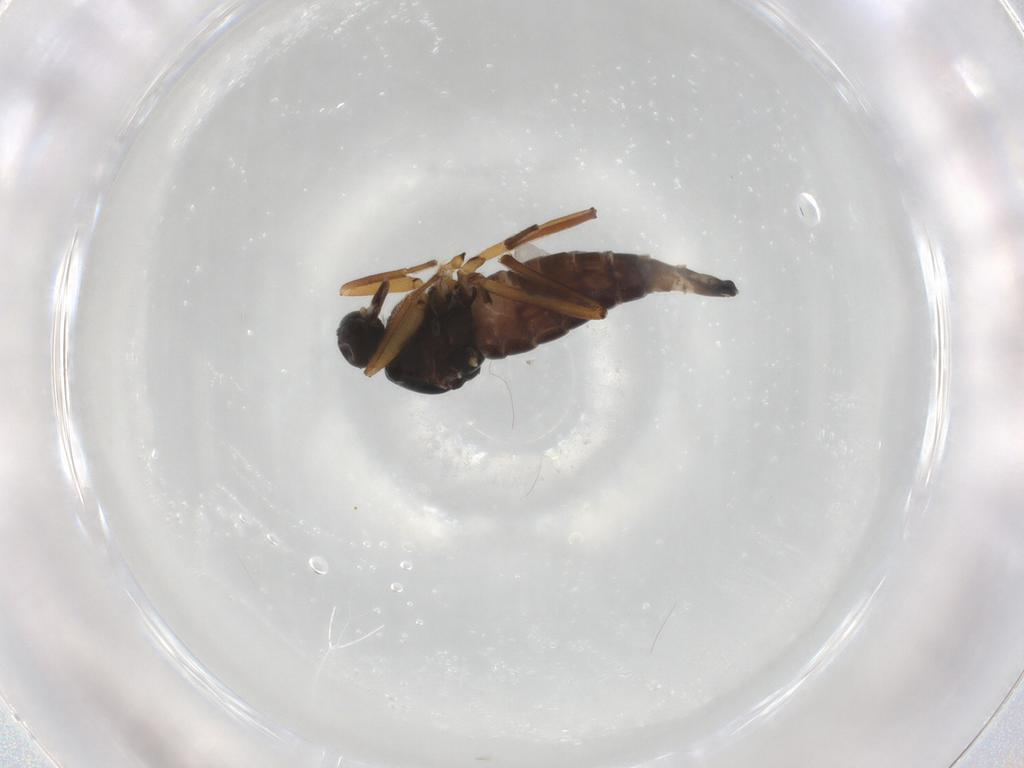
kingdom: Animalia
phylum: Arthropoda
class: Insecta
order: Diptera
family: Hybotidae
